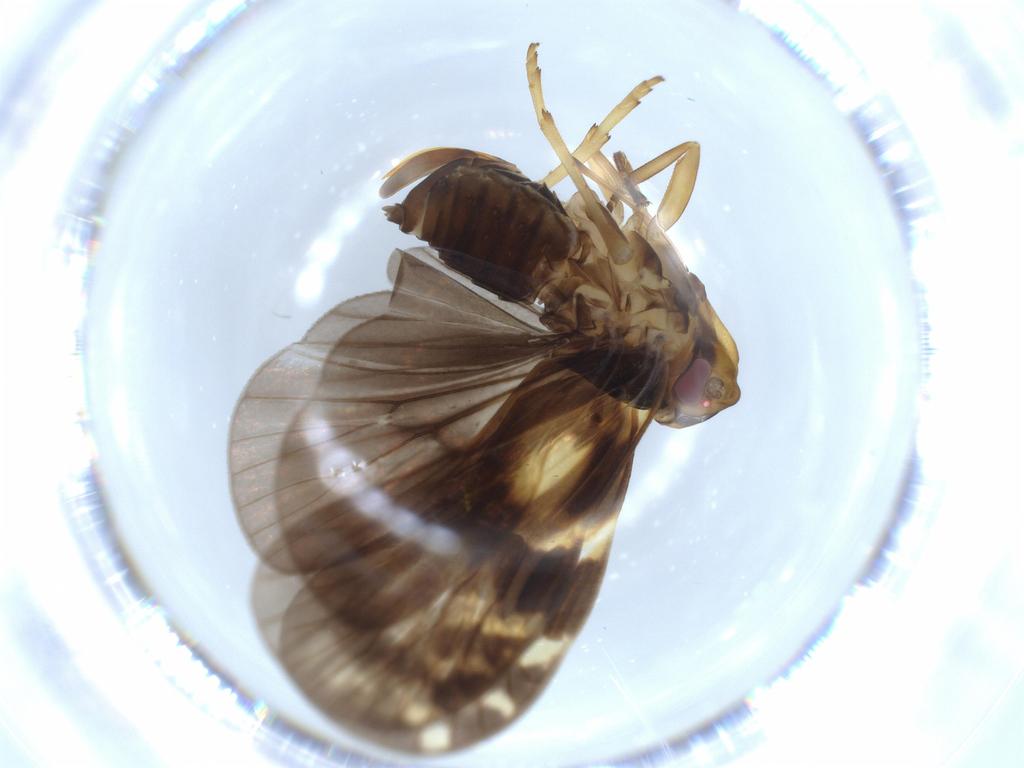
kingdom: Animalia
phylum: Arthropoda
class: Insecta
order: Hemiptera
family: Cixiidae
